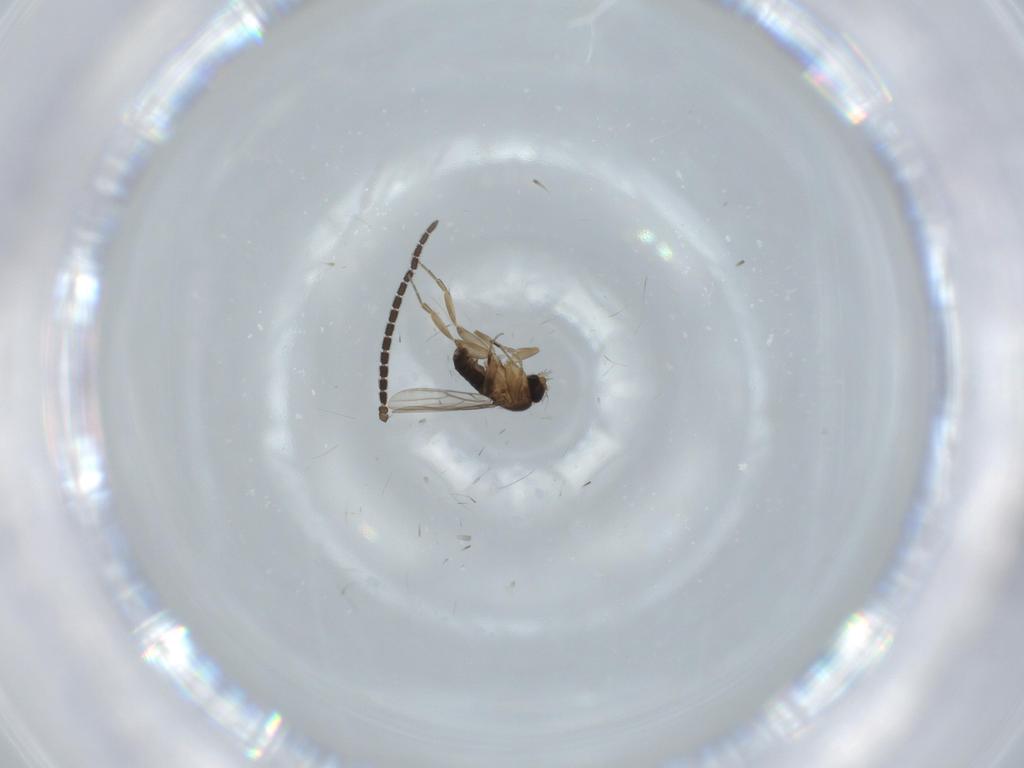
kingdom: Animalia
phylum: Arthropoda
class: Insecta
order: Diptera
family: Sciaridae
